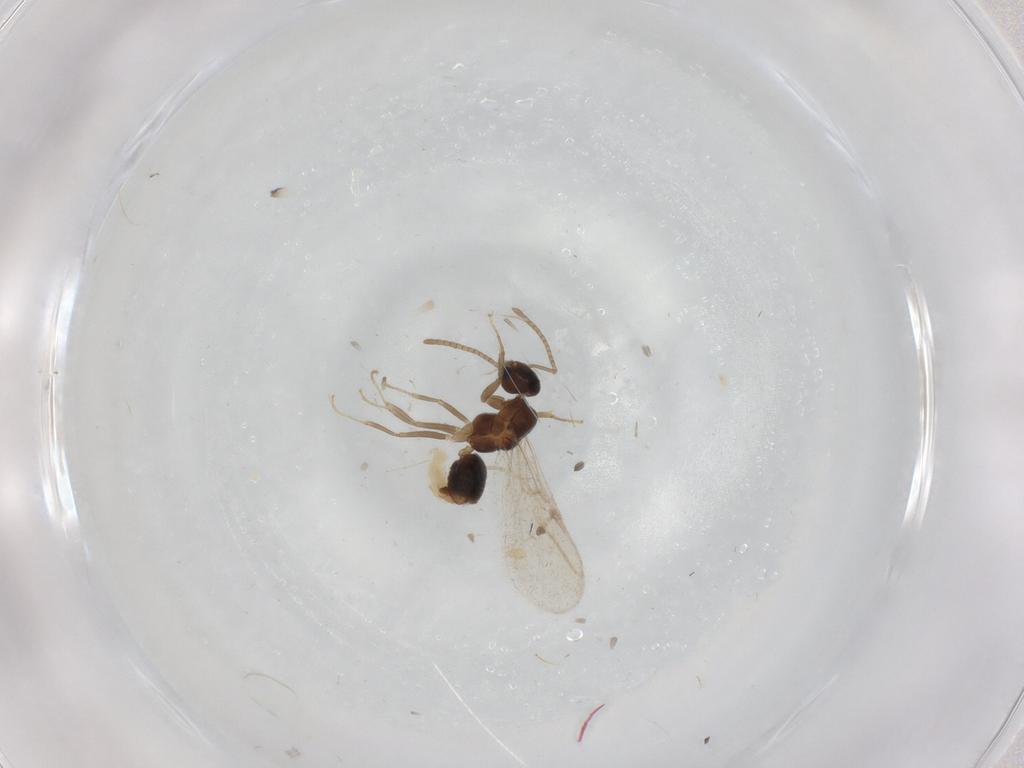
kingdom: Animalia
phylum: Arthropoda
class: Insecta
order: Hymenoptera
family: Formicidae
